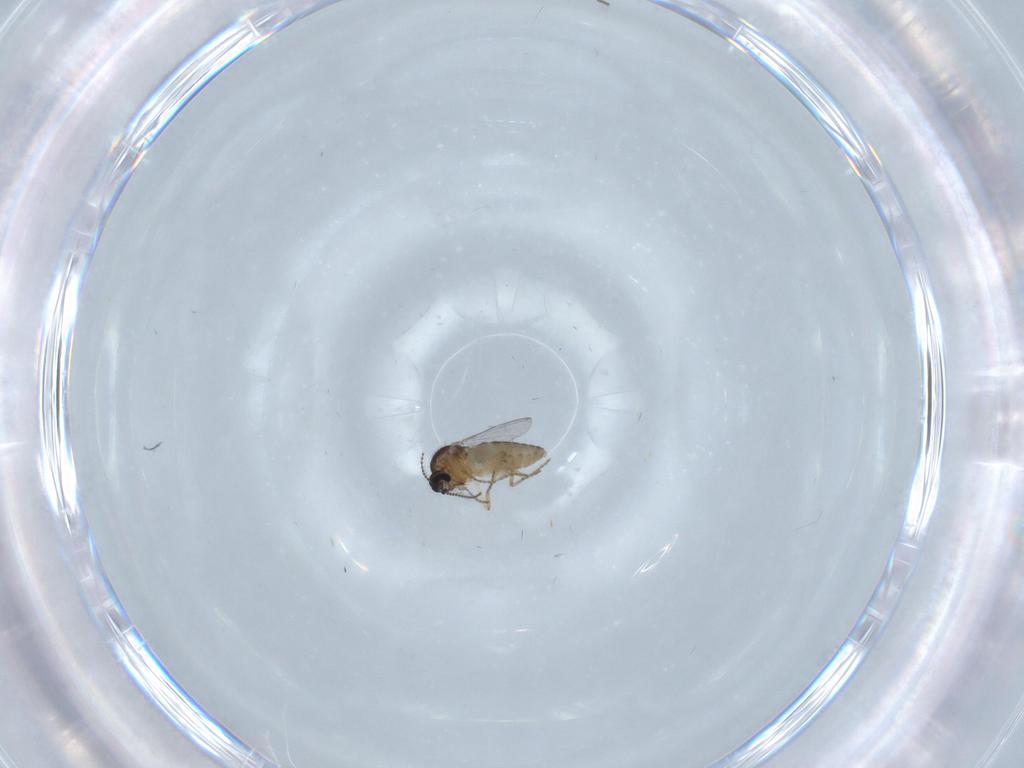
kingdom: Animalia
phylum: Arthropoda
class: Insecta
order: Diptera
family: Ceratopogonidae
